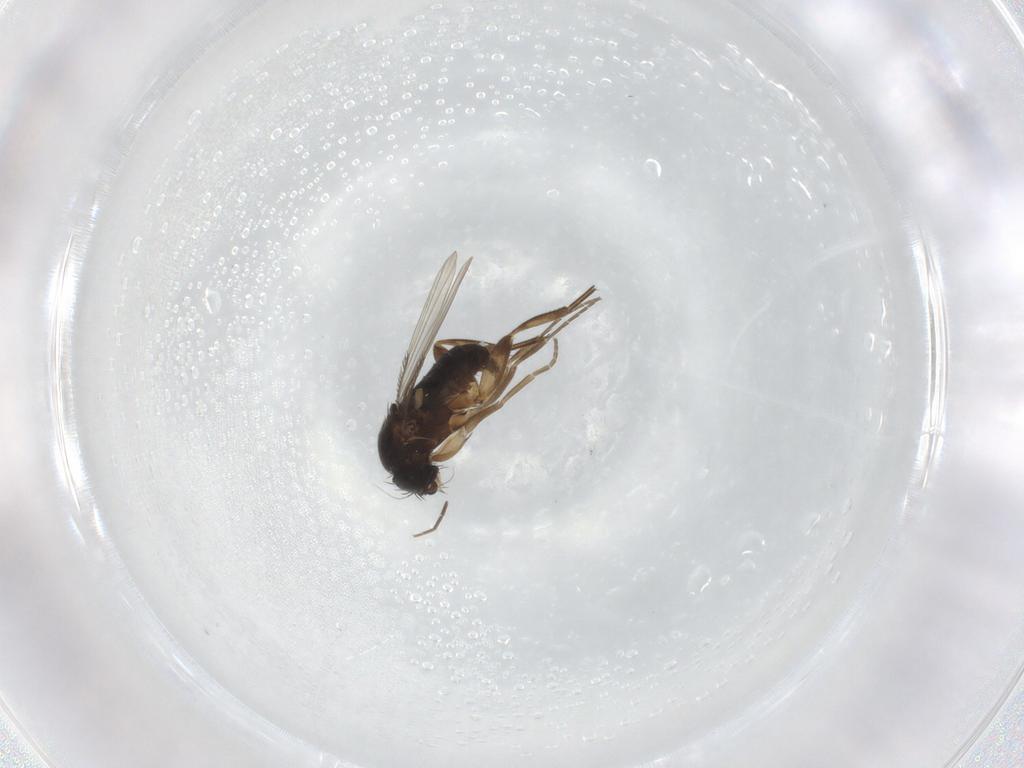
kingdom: Animalia
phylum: Arthropoda
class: Insecta
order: Diptera
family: Phoridae
